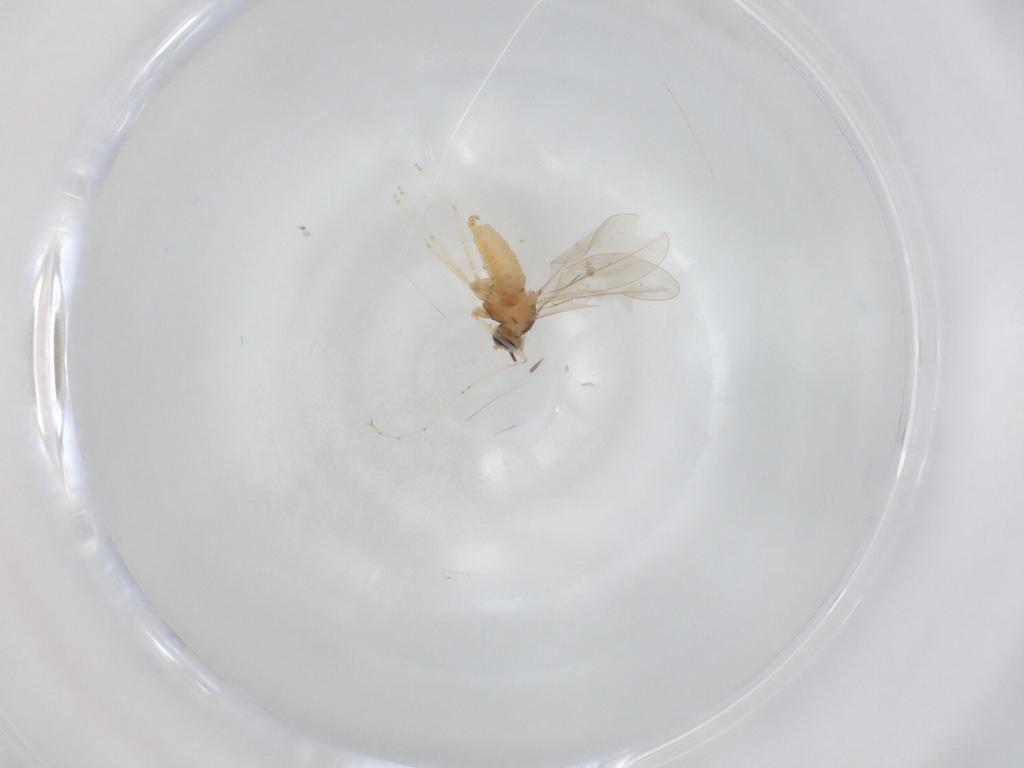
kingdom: Animalia
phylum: Arthropoda
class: Insecta
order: Diptera
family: Cecidomyiidae
